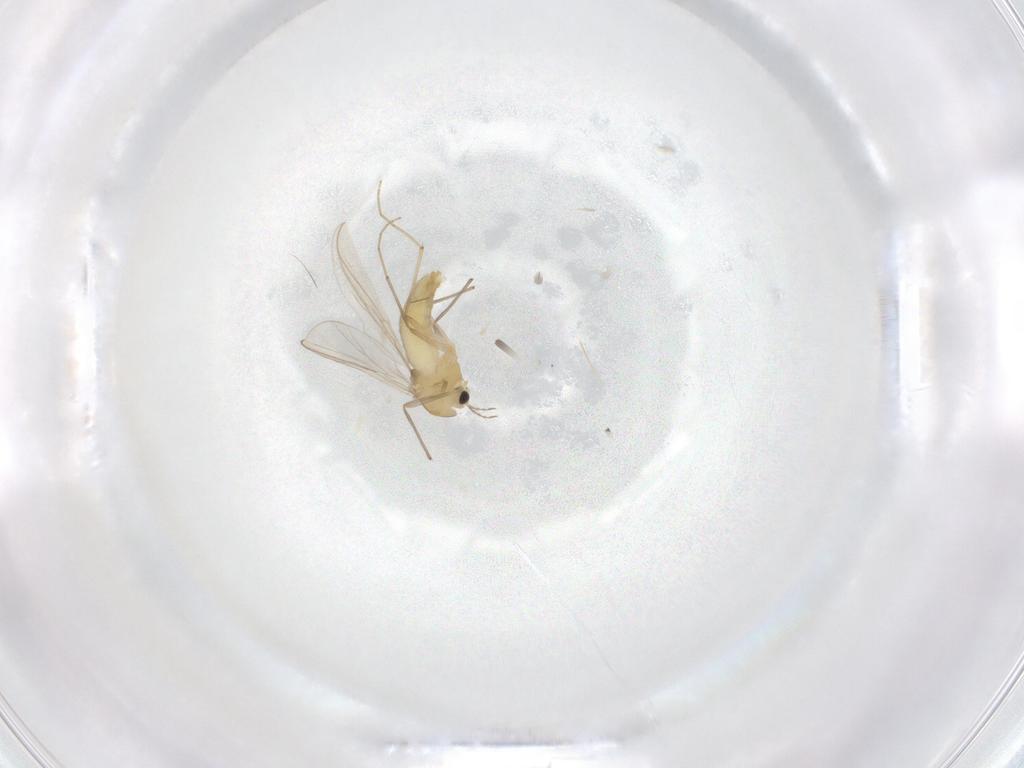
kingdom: Animalia
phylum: Arthropoda
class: Insecta
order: Diptera
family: Chironomidae
